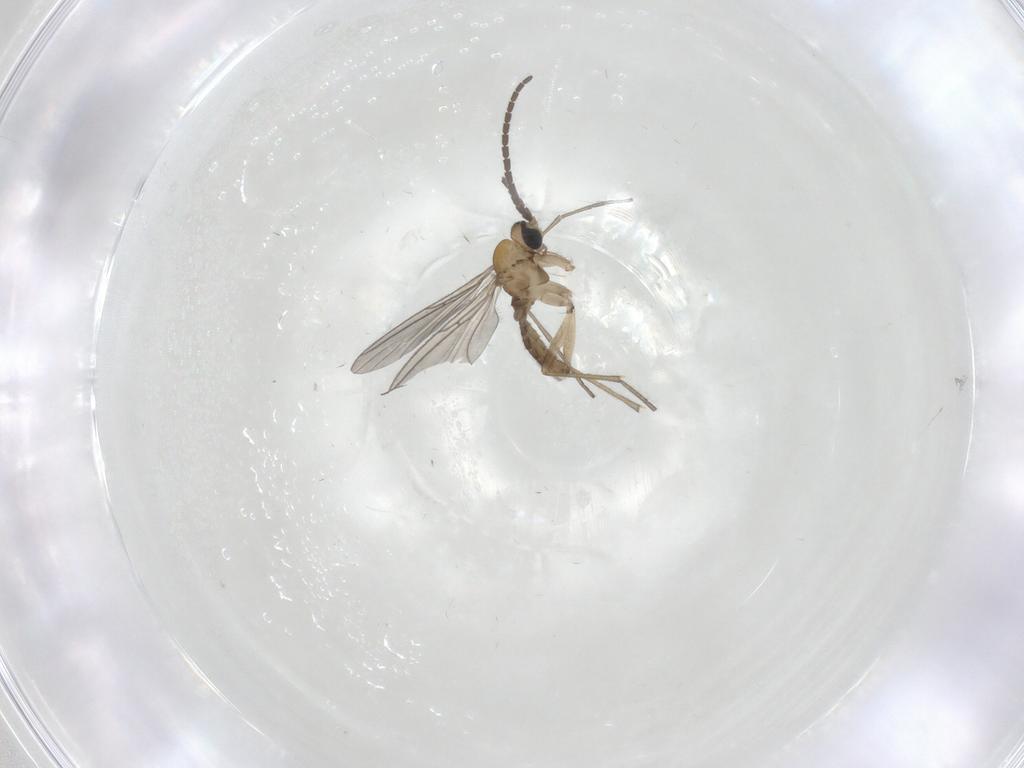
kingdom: Animalia
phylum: Arthropoda
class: Insecta
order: Diptera
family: Sciaridae
